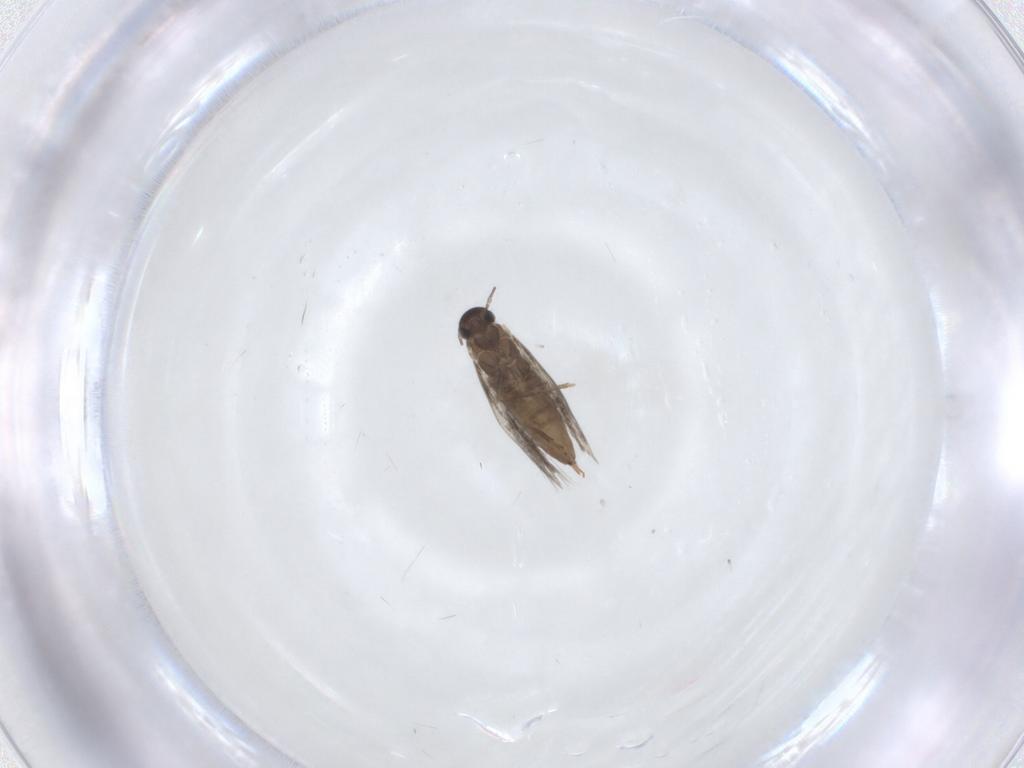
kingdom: Animalia
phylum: Arthropoda
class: Insecta
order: Lepidoptera
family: Heliozelidae
